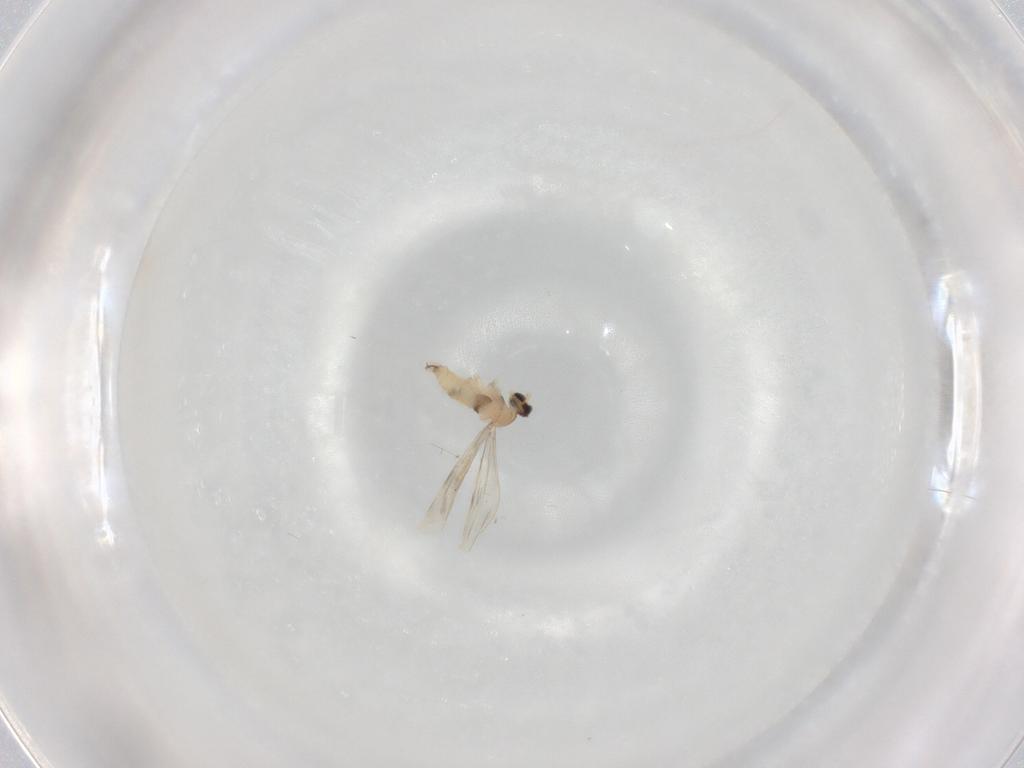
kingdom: Animalia
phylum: Arthropoda
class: Insecta
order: Diptera
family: Cecidomyiidae
